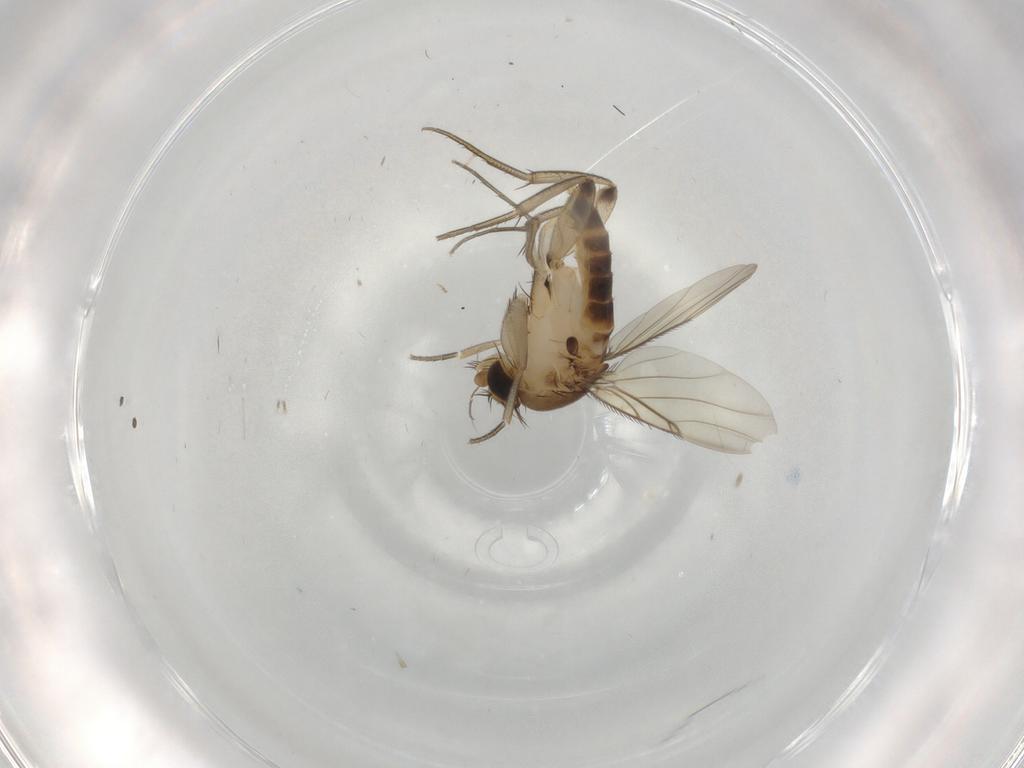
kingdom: Animalia
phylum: Arthropoda
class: Insecta
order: Diptera
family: Phoridae
